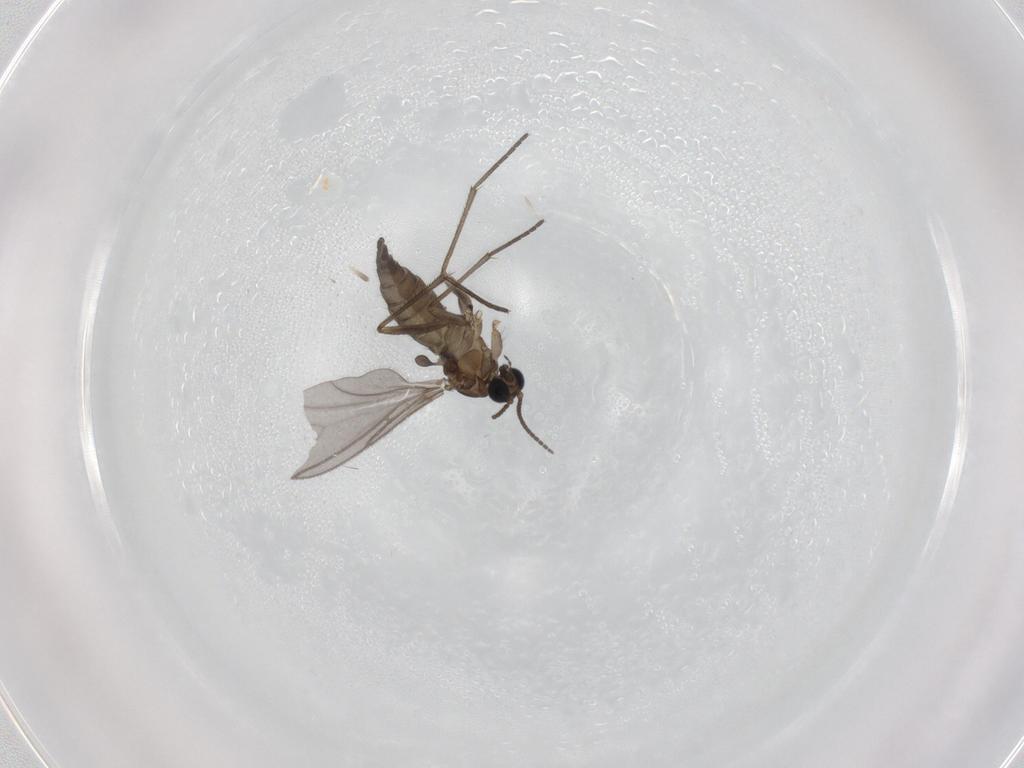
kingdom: Animalia
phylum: Arthropoda
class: Insecta
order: Diptera
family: Sciaridae
